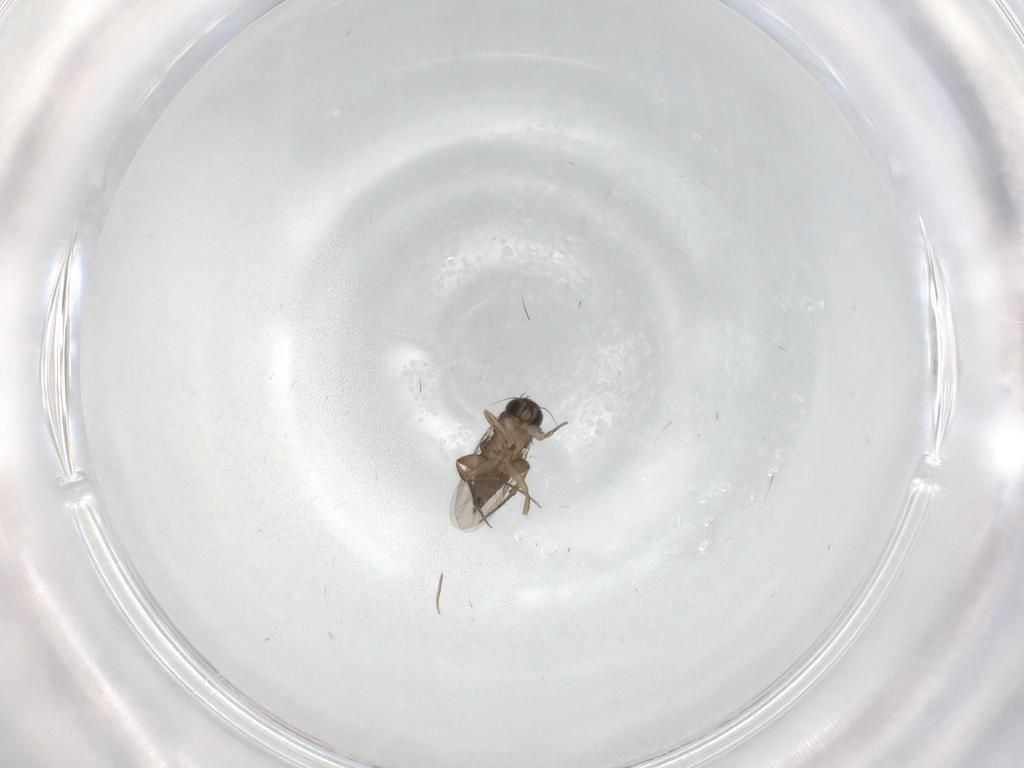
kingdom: Animalia
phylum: Arthropoda
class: Insecta
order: Diptera
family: Phoridae
